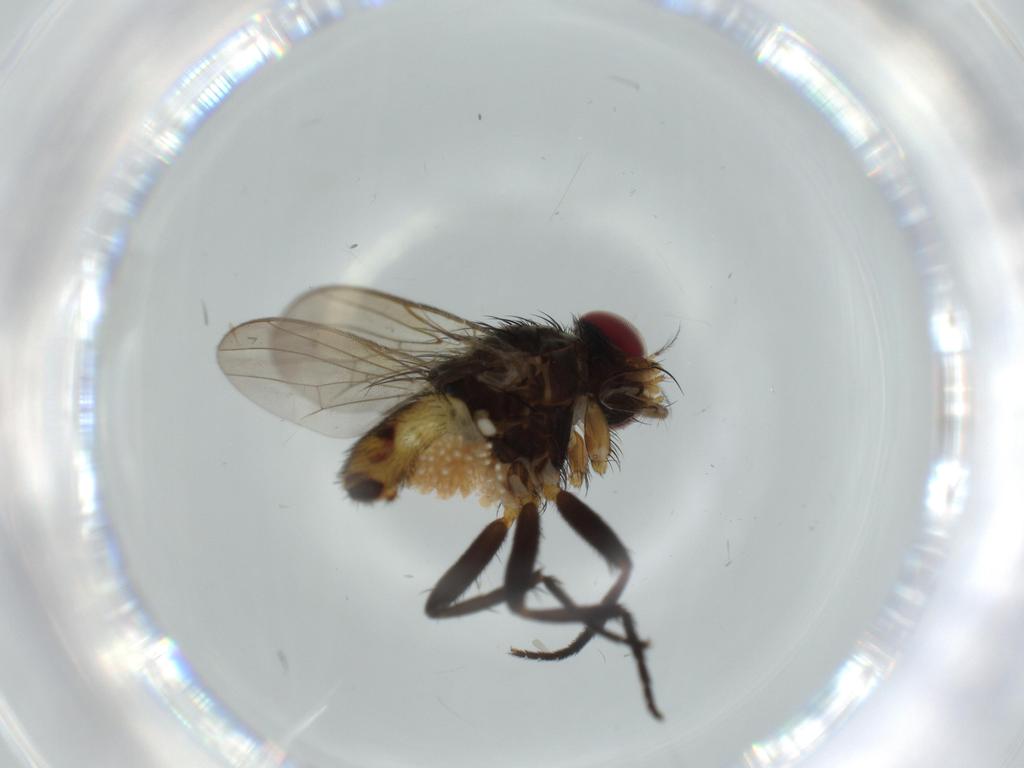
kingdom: Animalia
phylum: Arthropoda
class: Insecta
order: Diptera
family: Anthomyiidae
